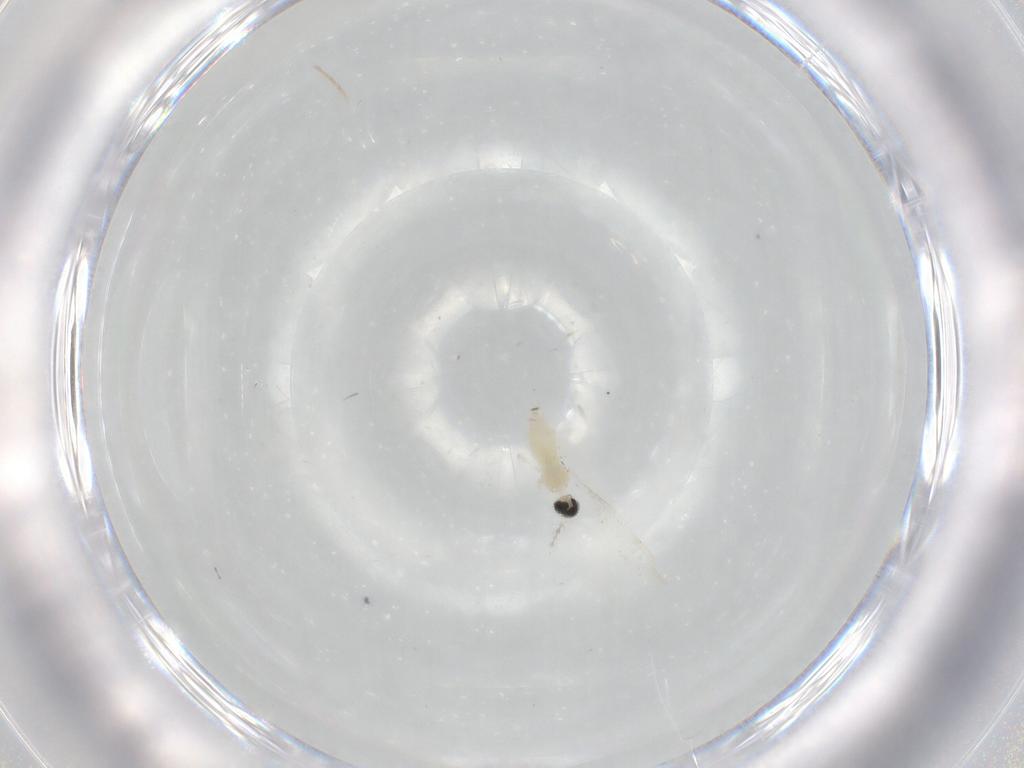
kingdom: Animalia
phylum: Arthropoda
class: Insecta
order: Diptera
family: Cecidomyiidae
